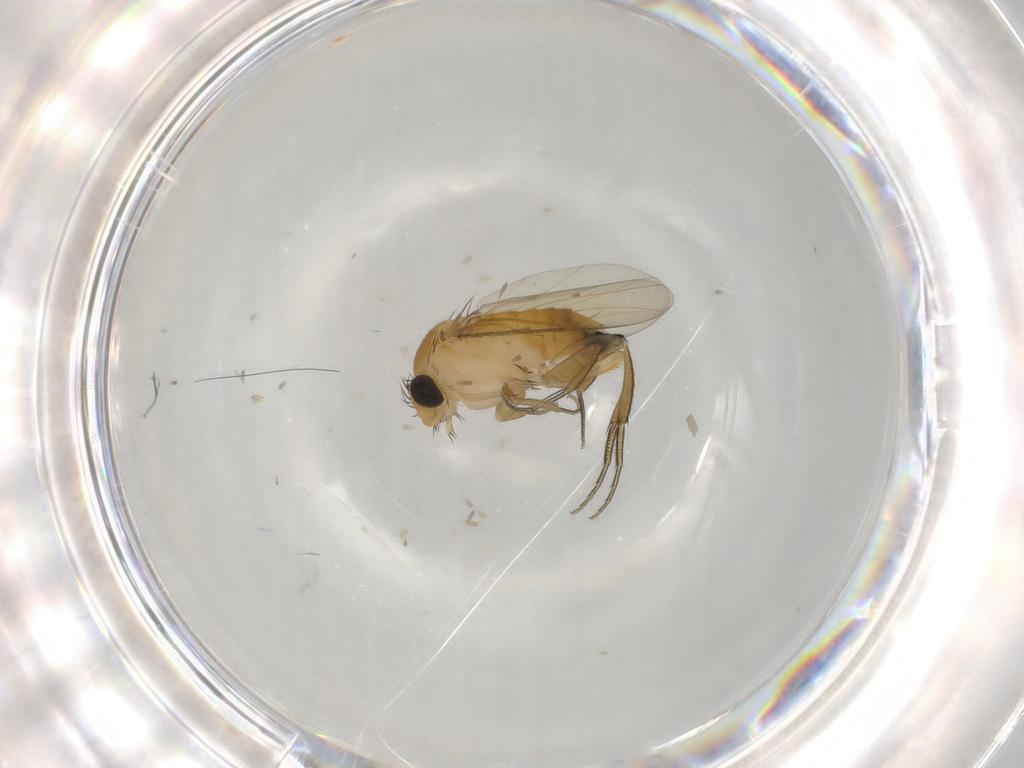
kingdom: Animalia
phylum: Arthropoda
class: Insecta
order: Diptera
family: Phoridae
